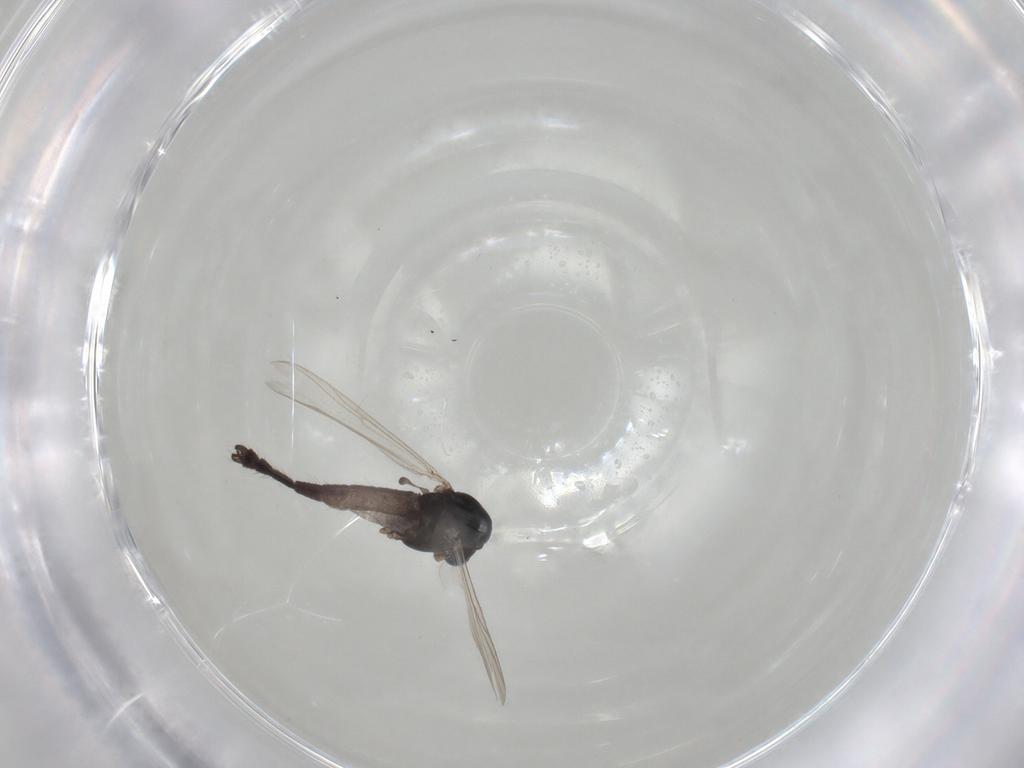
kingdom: Animalia
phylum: Arthropoda
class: Insecta
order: Diptera
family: Chironomidae
